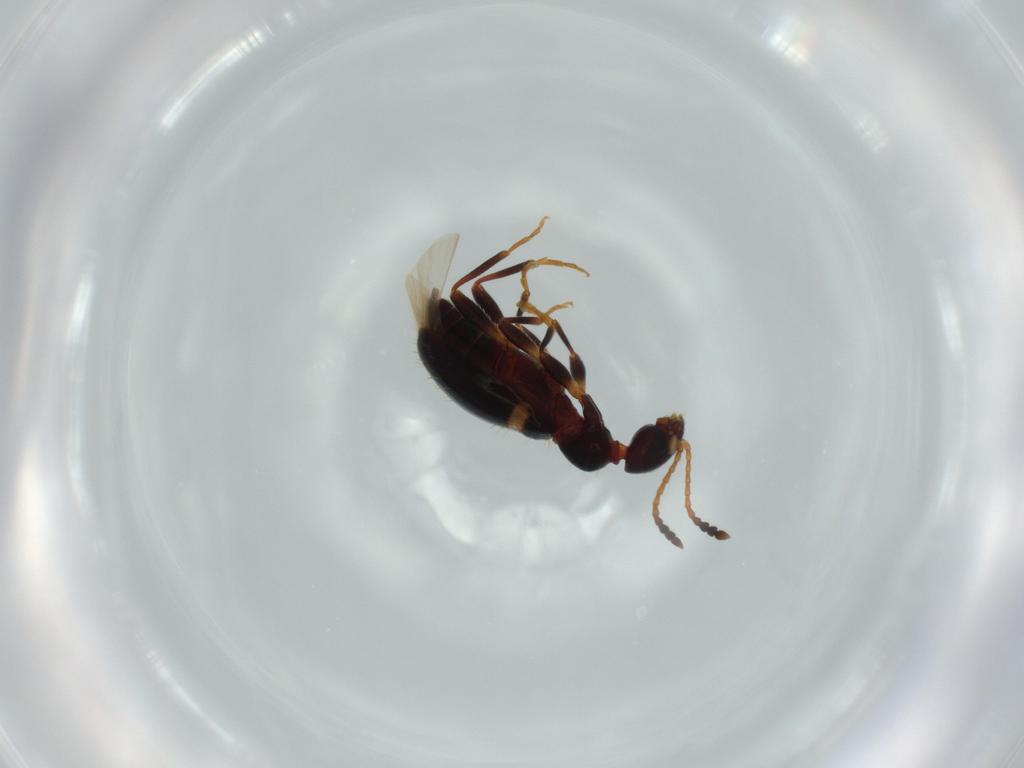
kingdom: Animalia
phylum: Arthropoda
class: Insecta
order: Coleoptera
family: Anthicidae
